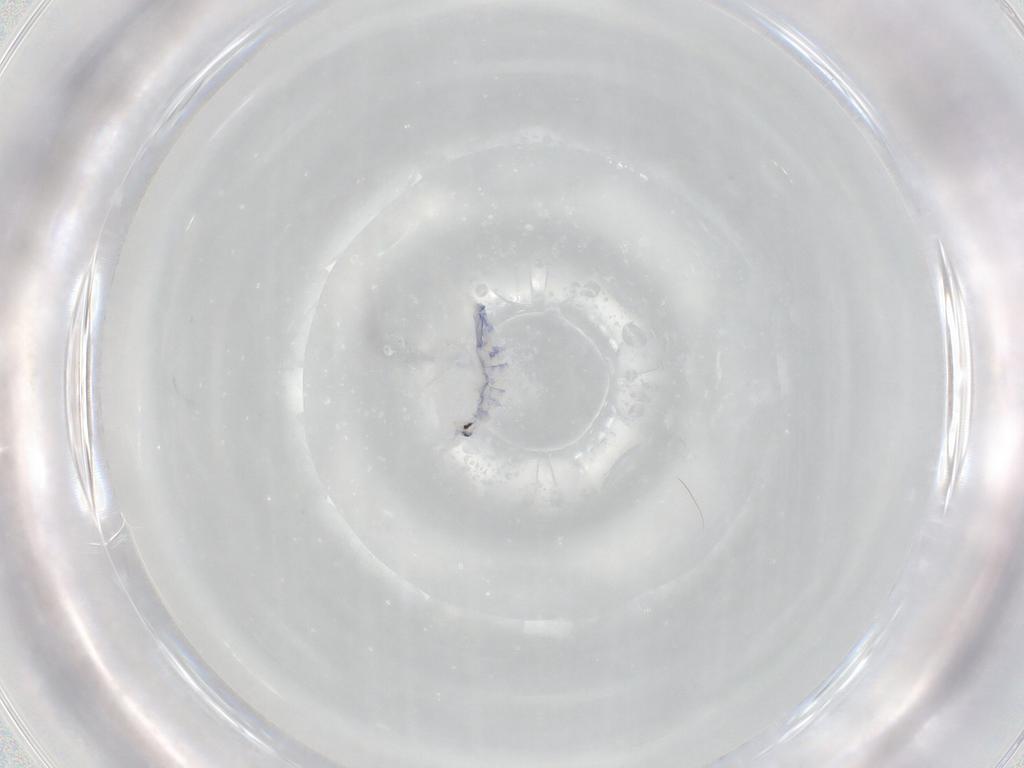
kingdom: Animalia
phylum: Arthropoda
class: Collembola
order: Entomobryomorpha
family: Entomobryidae
